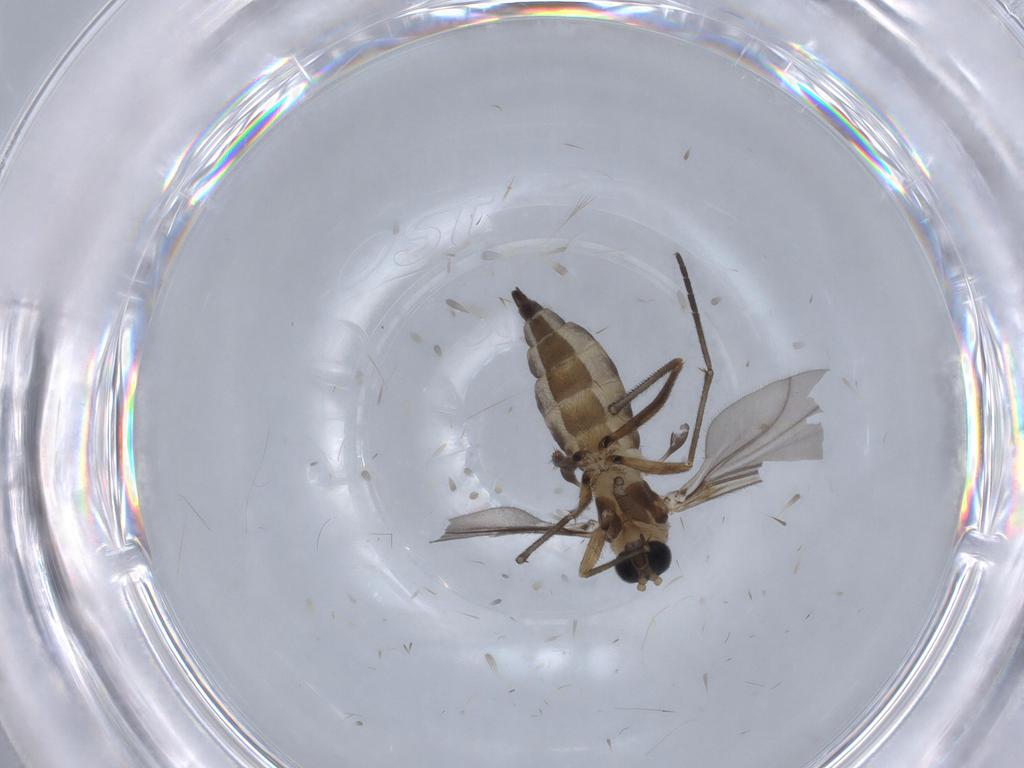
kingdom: Animalia
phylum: Arthropoda
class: Insecta
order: Diptera
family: Sciaridae
